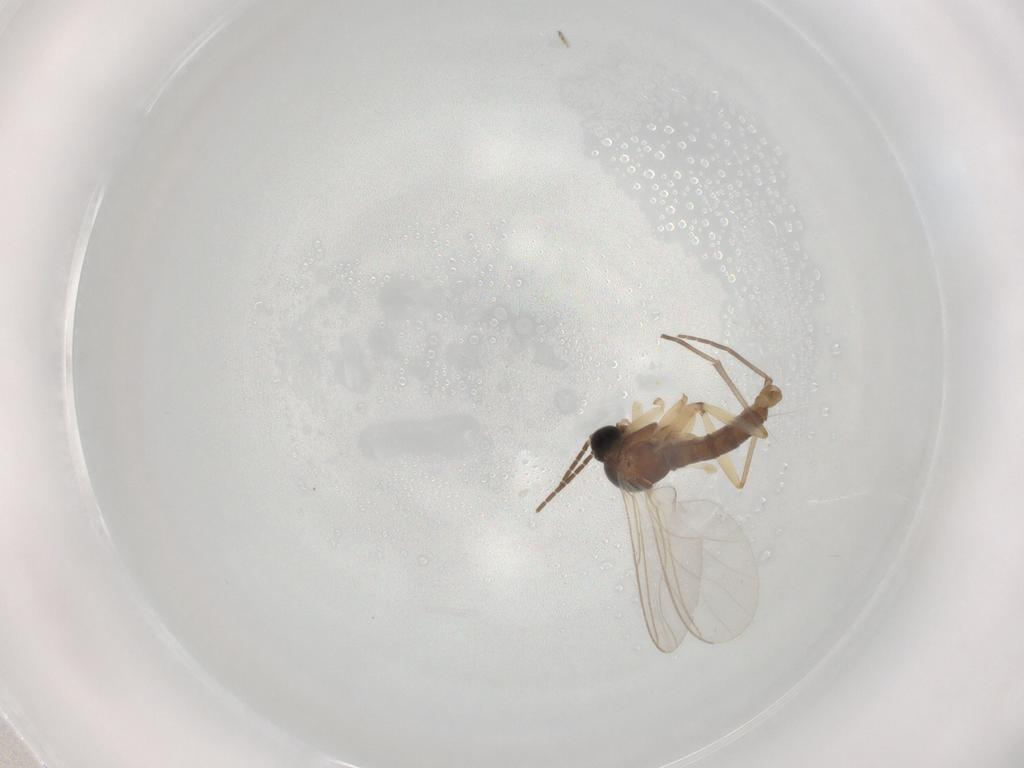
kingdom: Animalia
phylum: Arthropoda
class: Insecta
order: Diptera
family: Sciaridae
